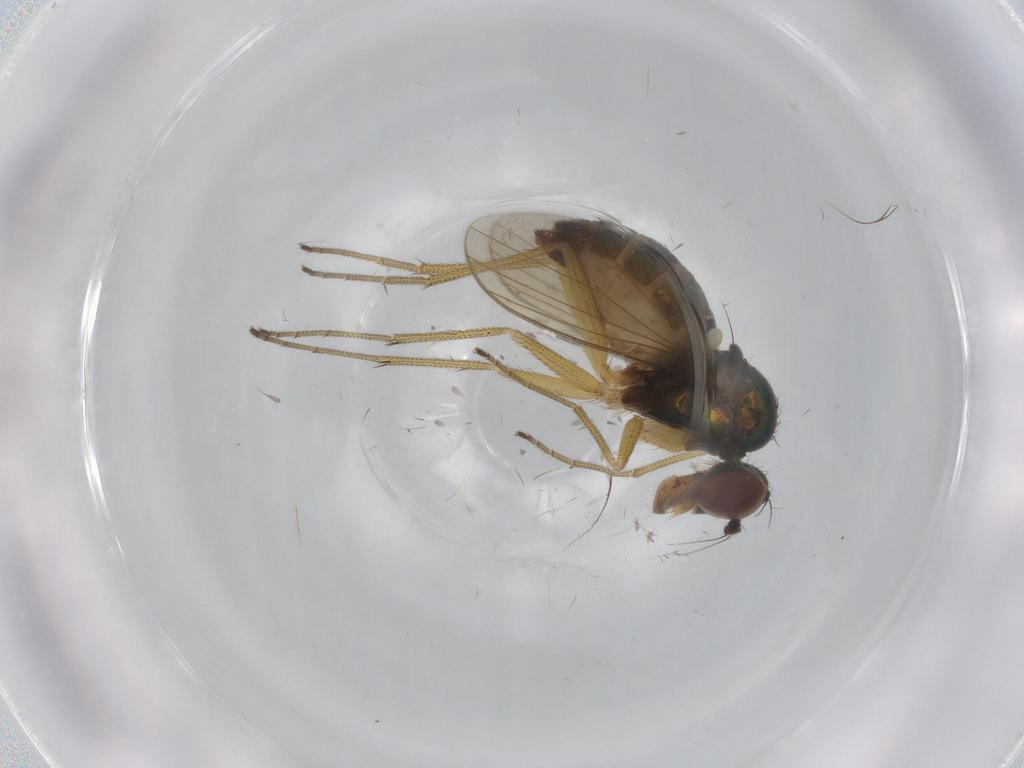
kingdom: Animalia
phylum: Arthropoda
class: Insecta
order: Diptera
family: Dolichopodidae
